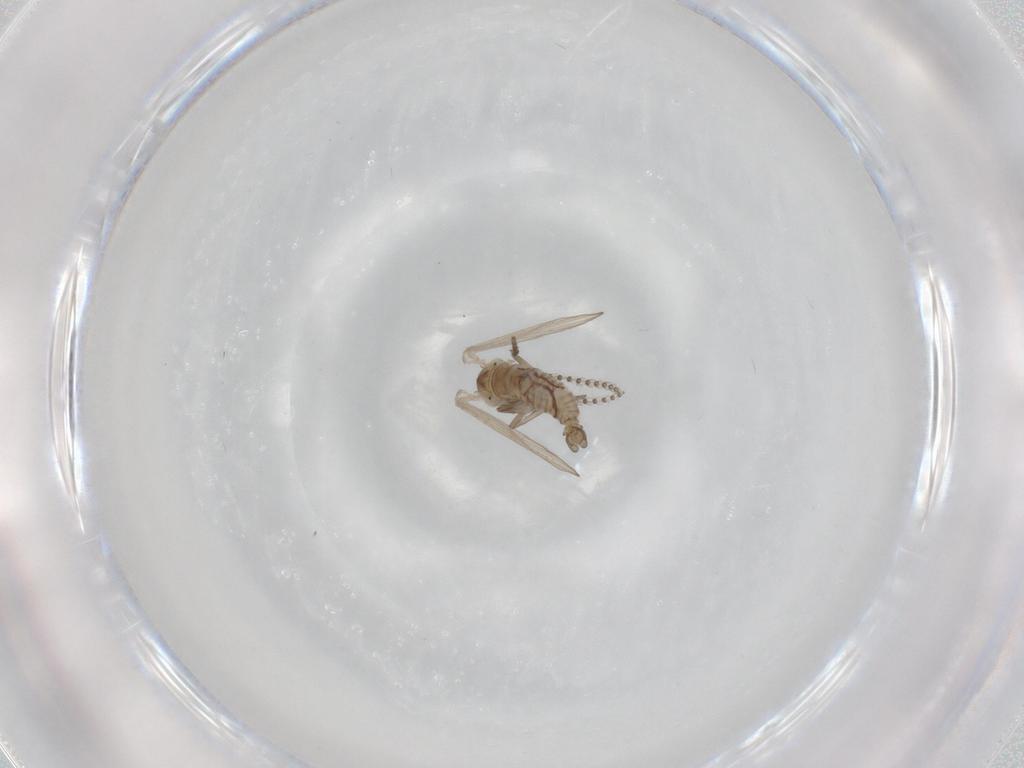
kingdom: Animalia
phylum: Arthropoda
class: Insecta
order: Diptera
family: Psychodidae
